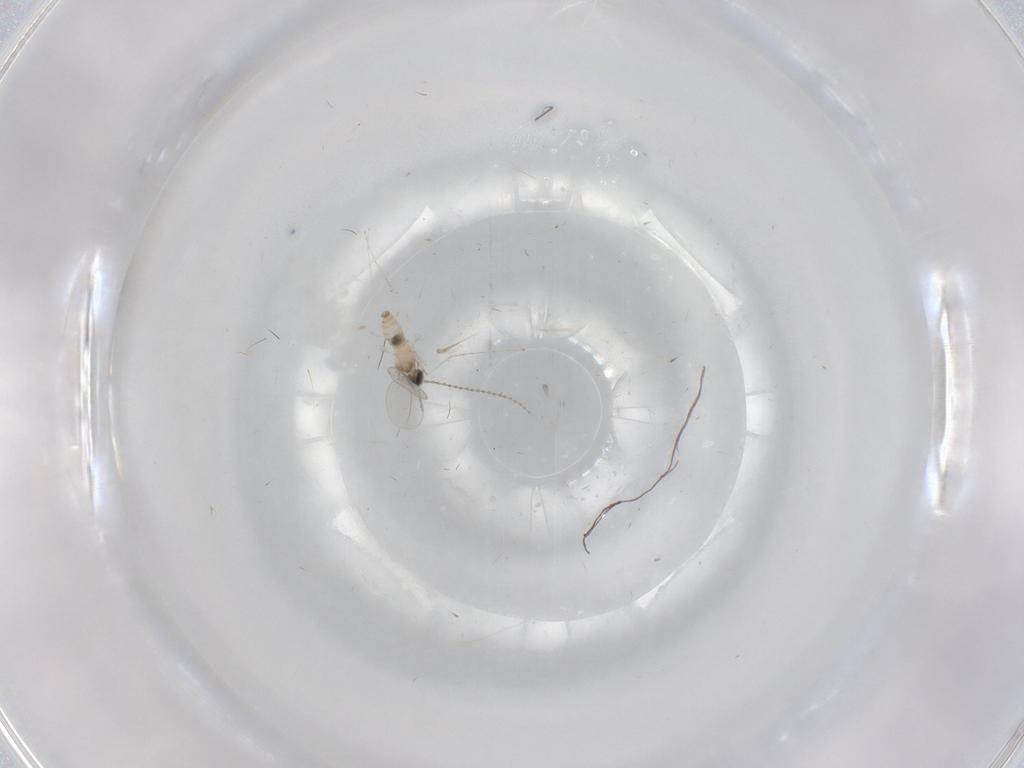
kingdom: Animalia
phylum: Arthropoda
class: Insecta
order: Diptera
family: Cecidomyiidae
